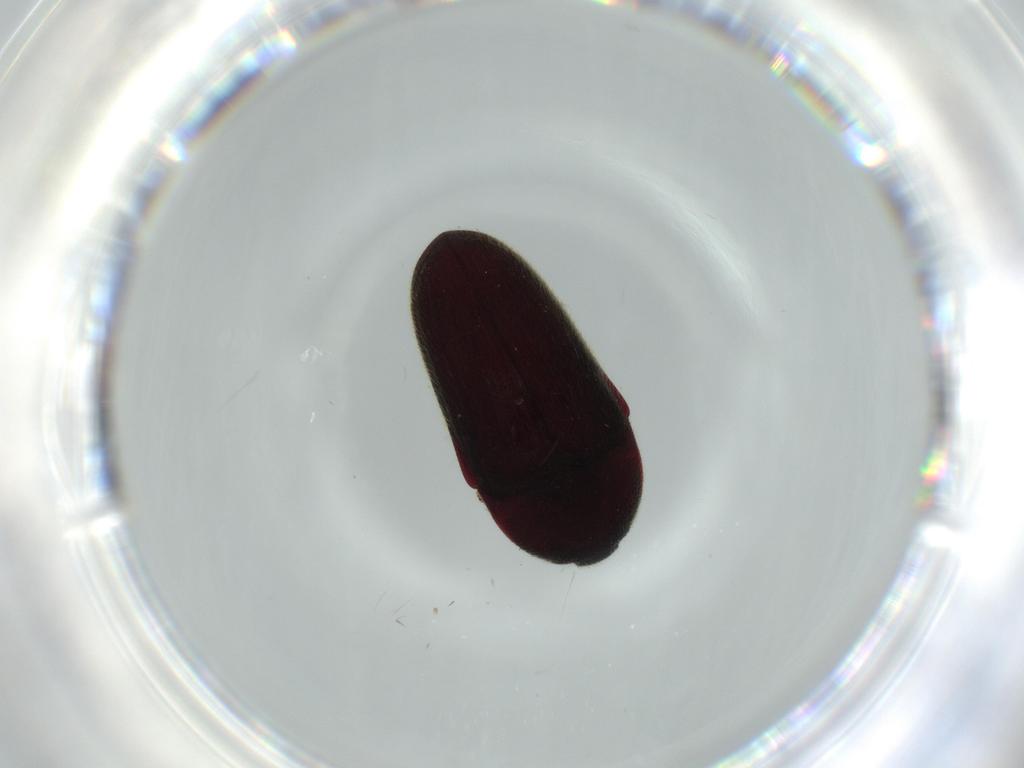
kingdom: Animalia
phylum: Arthropoda
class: Insecta
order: Coleoptera
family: Throscidae
